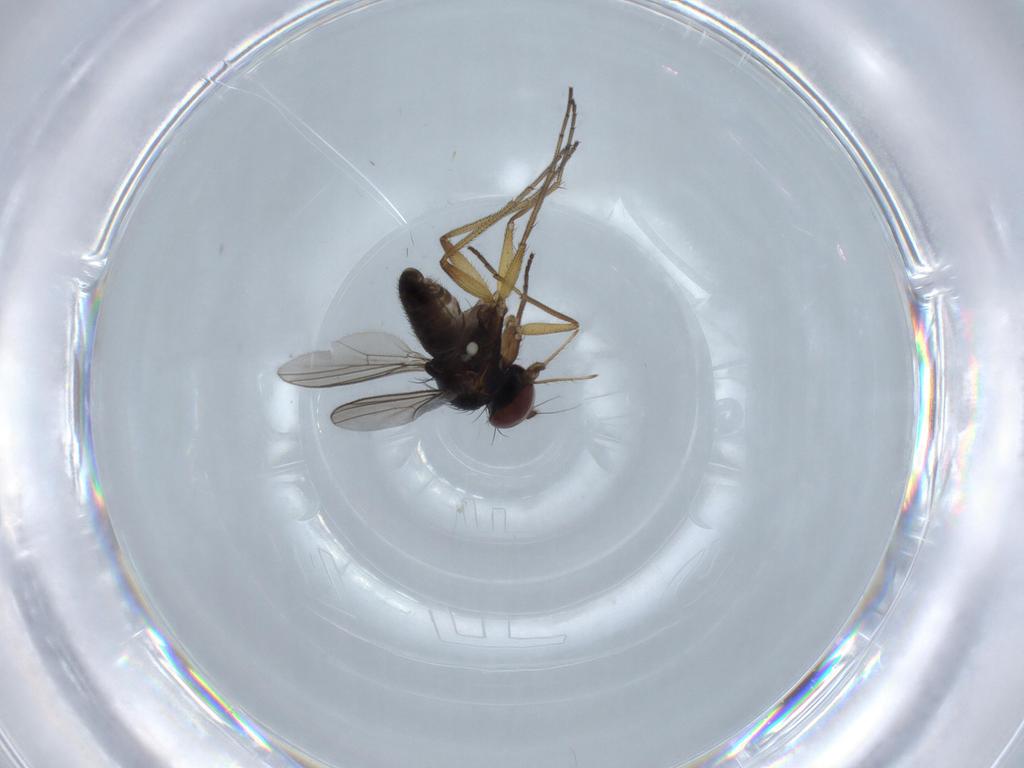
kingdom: Animalia
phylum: Arthropoda
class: Insecta
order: Diptera
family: Dolichopodidae
